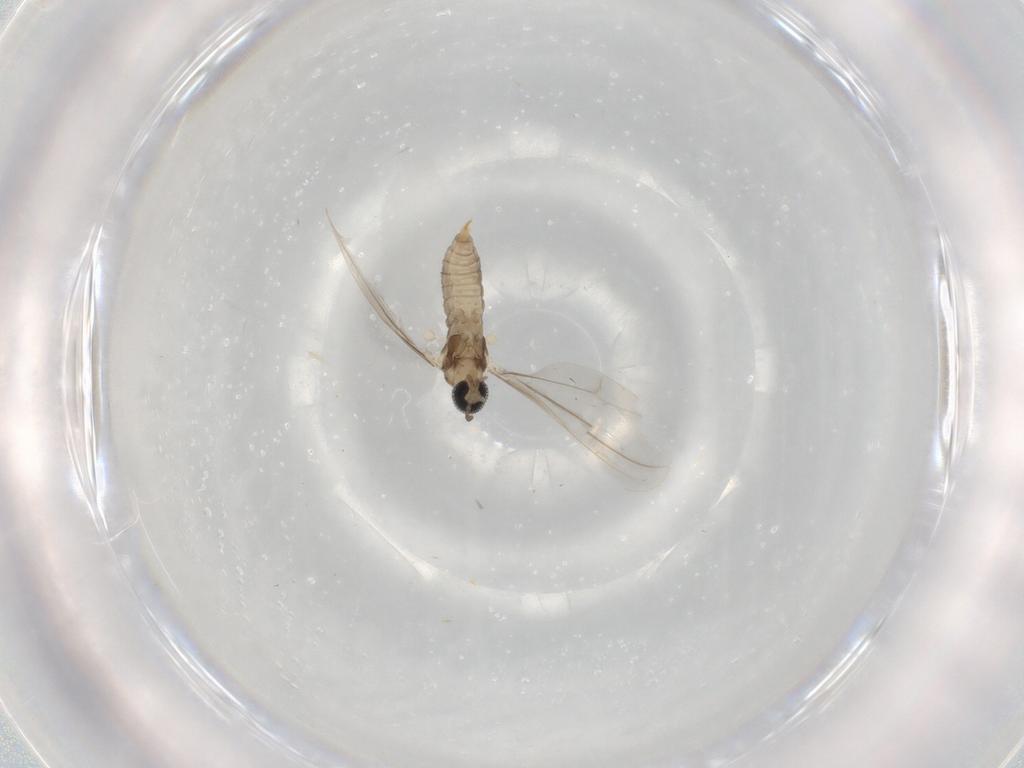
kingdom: Animalia
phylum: Arthropoda
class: Insecta
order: Diptera
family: Cecidomyiidae
